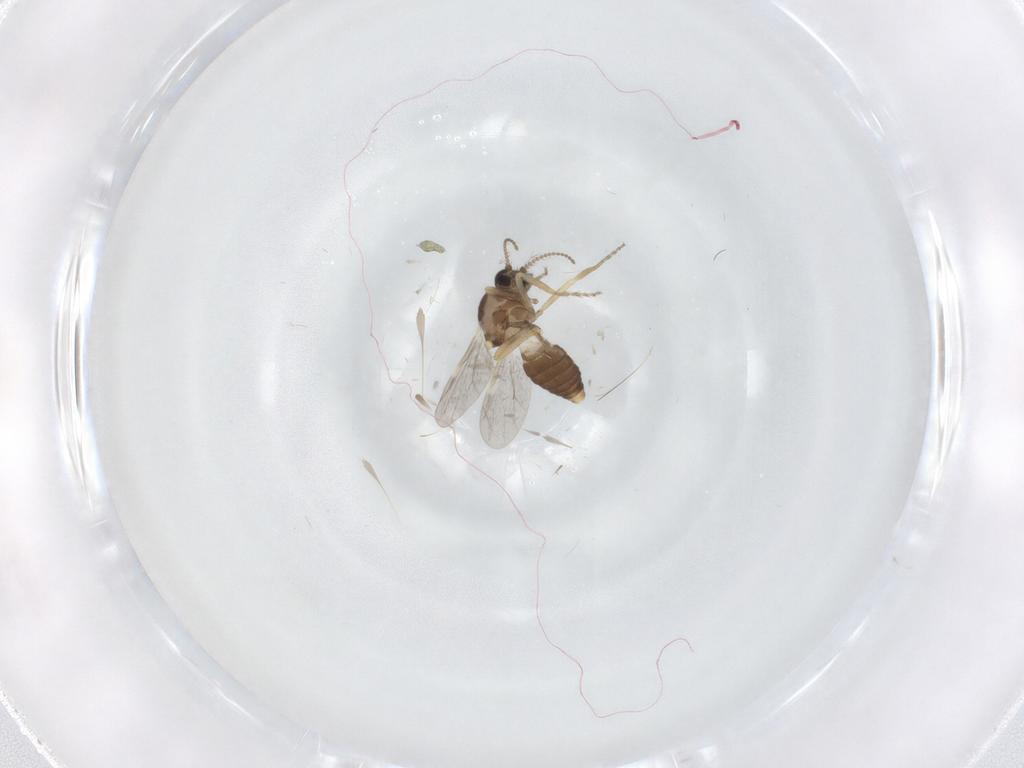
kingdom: Animalia
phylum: Arthropoda
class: Insecta
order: Diptera
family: Ceratopogonidae
